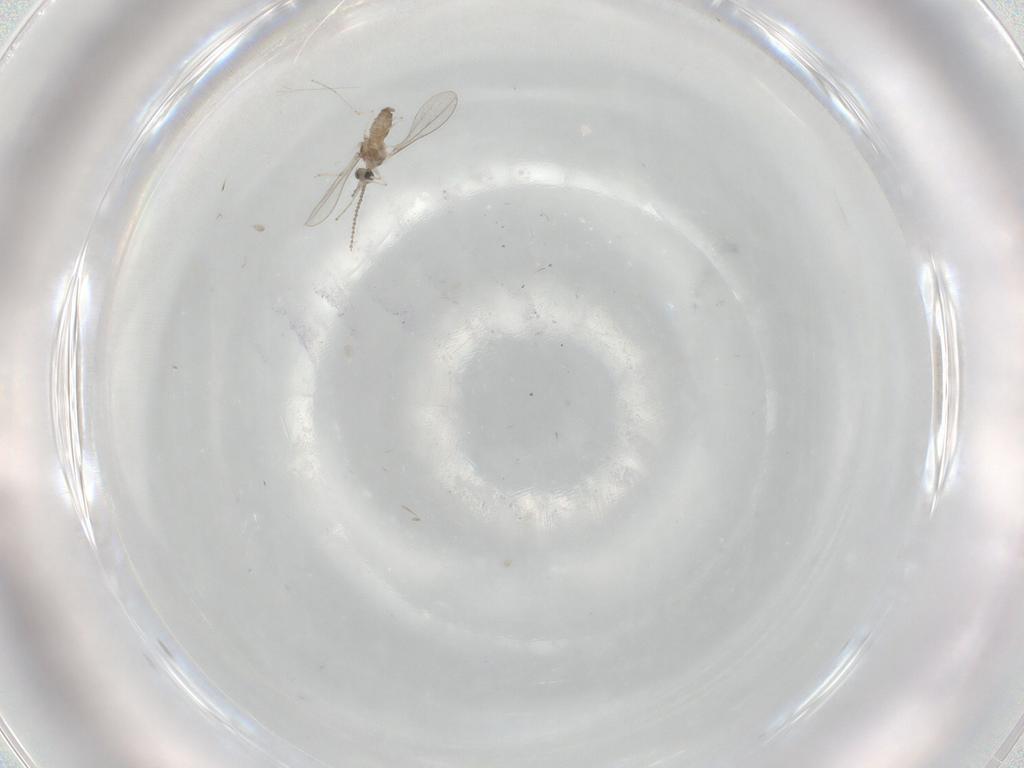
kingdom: Animalia
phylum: Arthropoda
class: Insecta
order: Diptera
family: Cecidomyiidae
